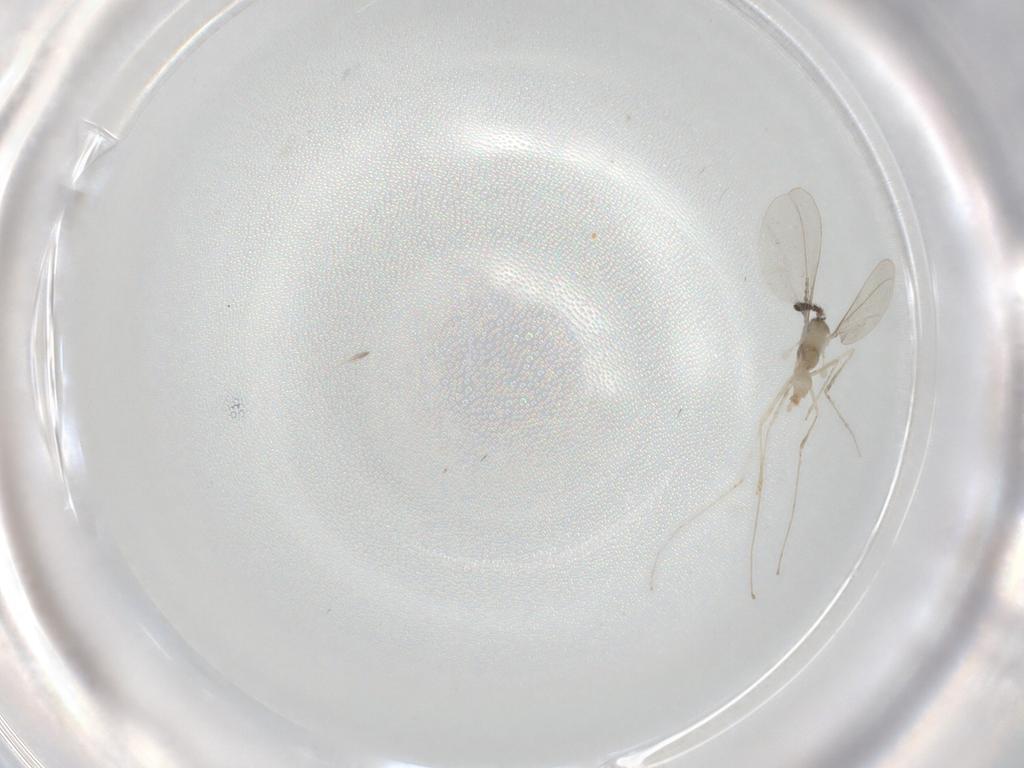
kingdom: Animalia
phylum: Arthropoda
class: Insecta
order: Diptera
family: Cecidomyiidae
